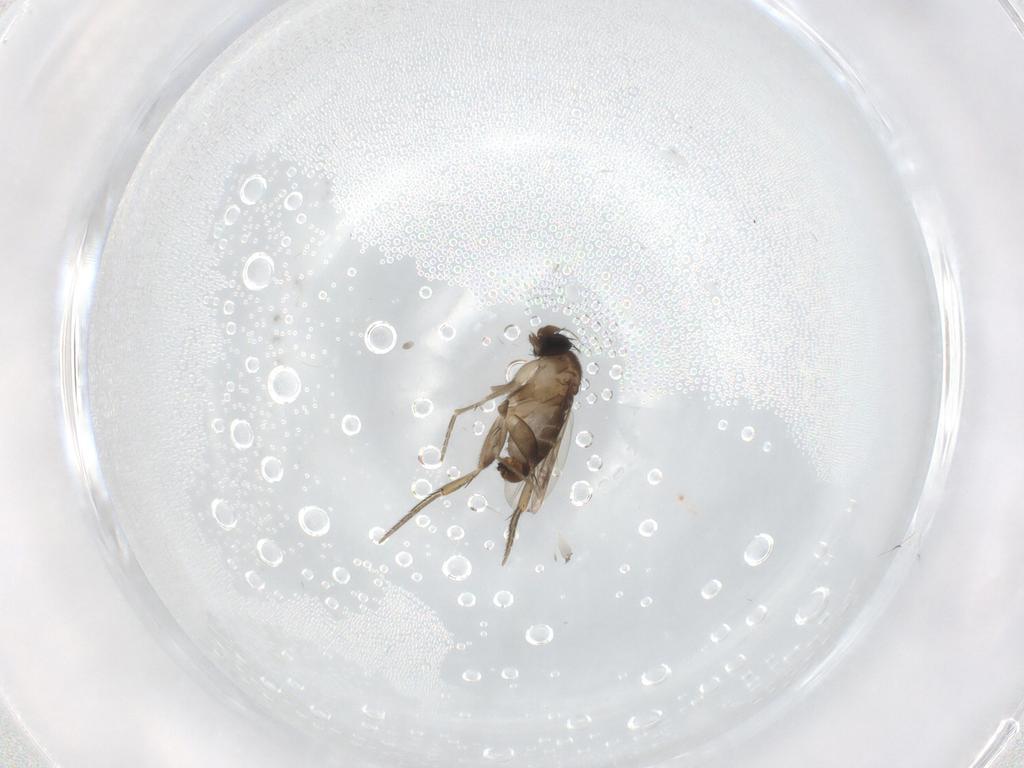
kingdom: Animalia
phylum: Arthropoda
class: Insecta
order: Diptera
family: Cecidomyiidae
